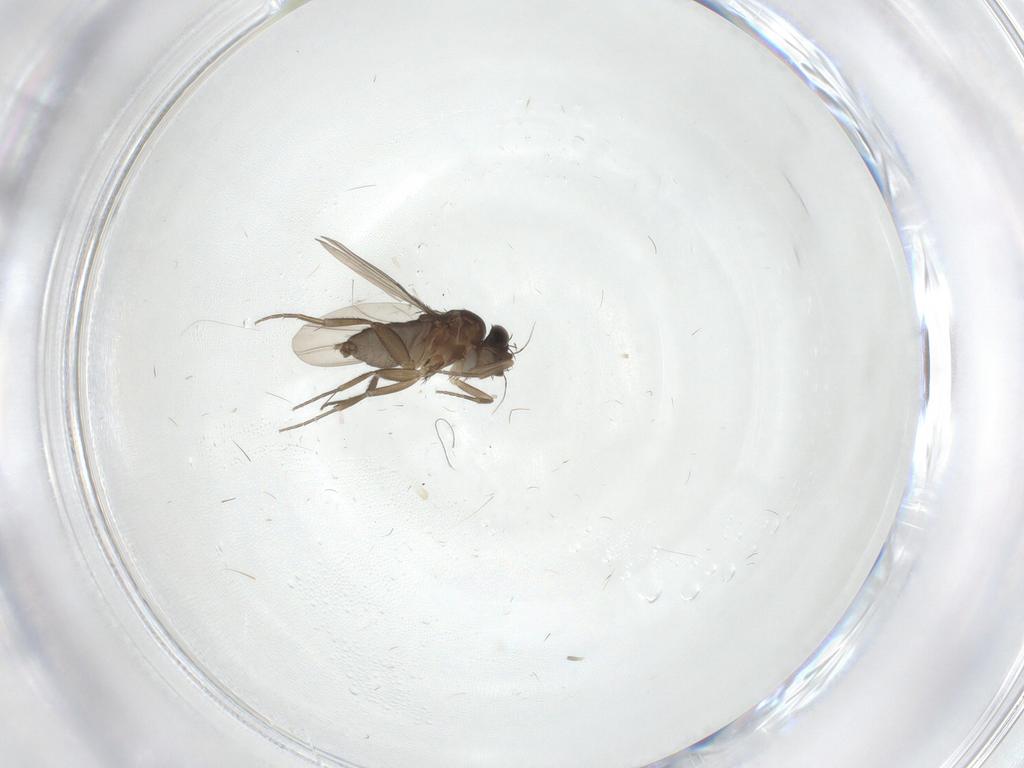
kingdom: Animalia
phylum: Arthropoda
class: Insecta
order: Diptera
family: Phoridae
